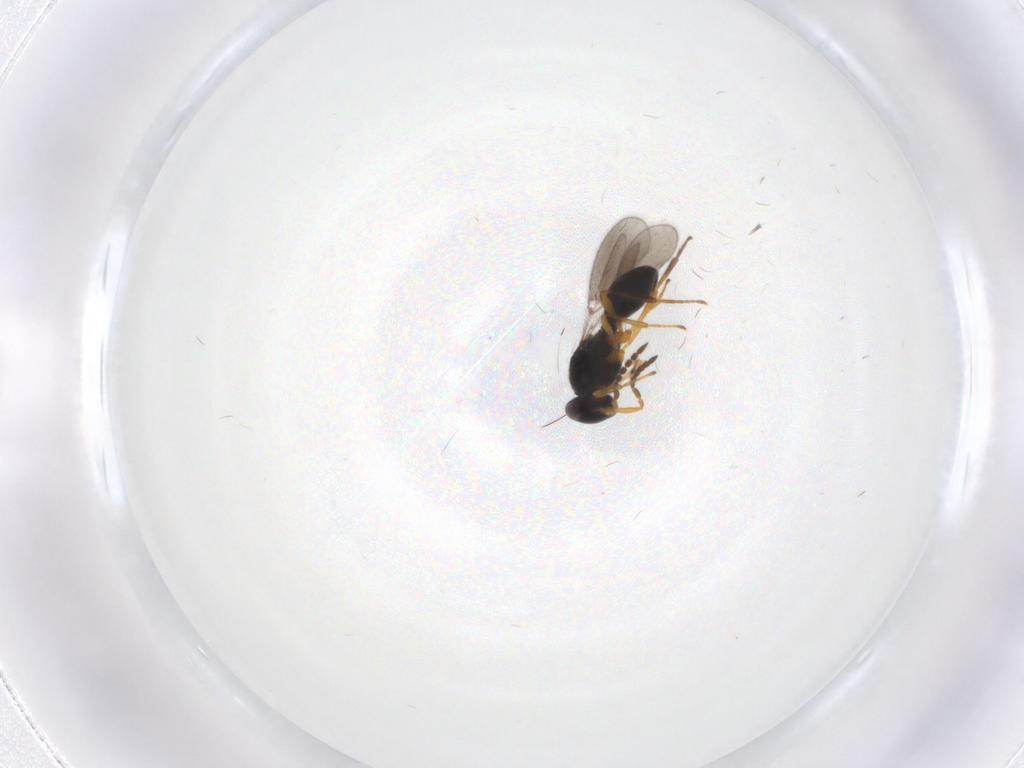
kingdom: Animalia
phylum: Arthropoda
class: Insecta
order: Hymenoptera
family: Platygastridae
